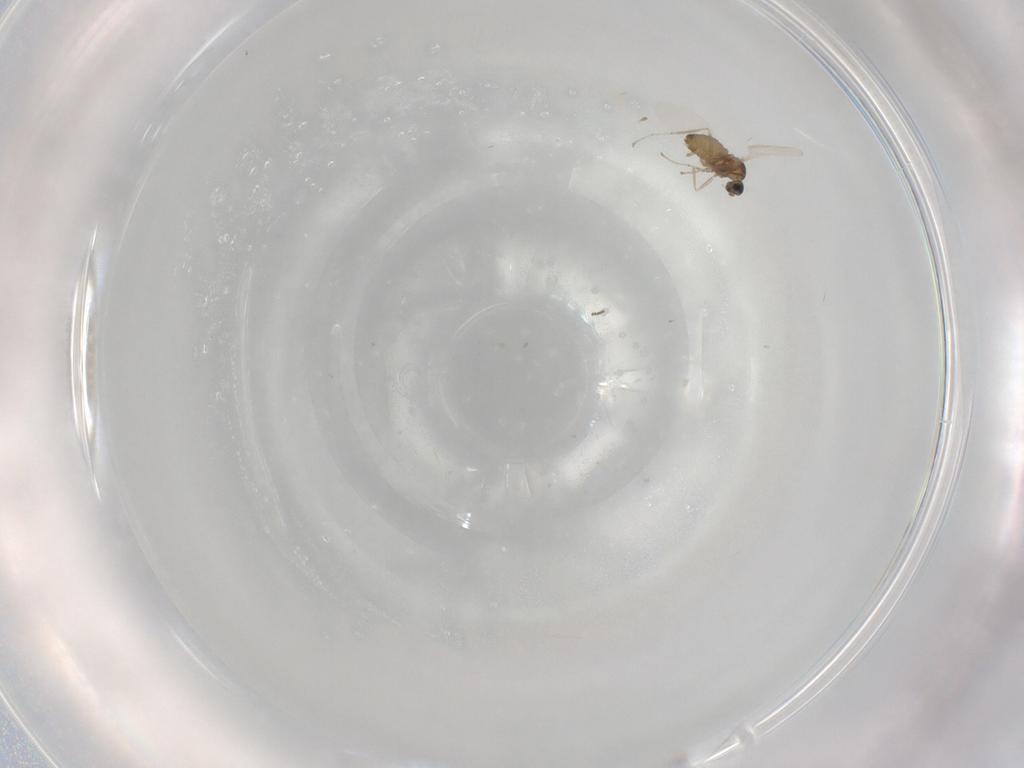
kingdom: Animalia
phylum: Arthropoda
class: Insecta
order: Diptera
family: Cecidomyiidae
